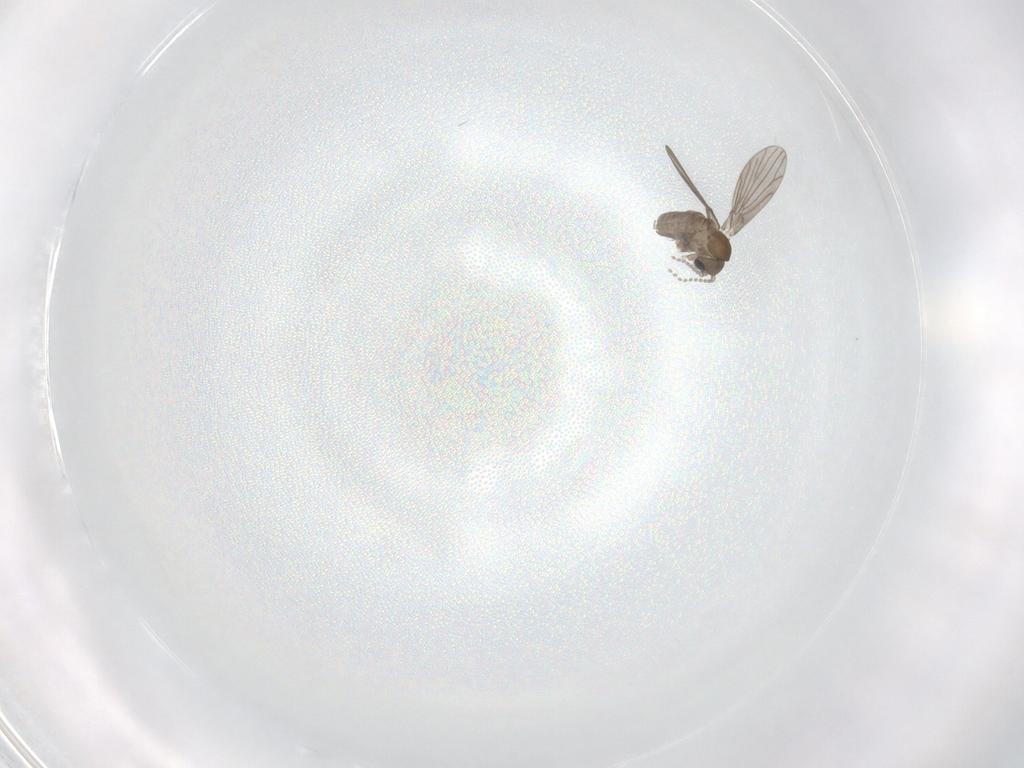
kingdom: Animalia
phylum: Arthropoda
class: Insecta
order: Diptera
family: Psychodidae
